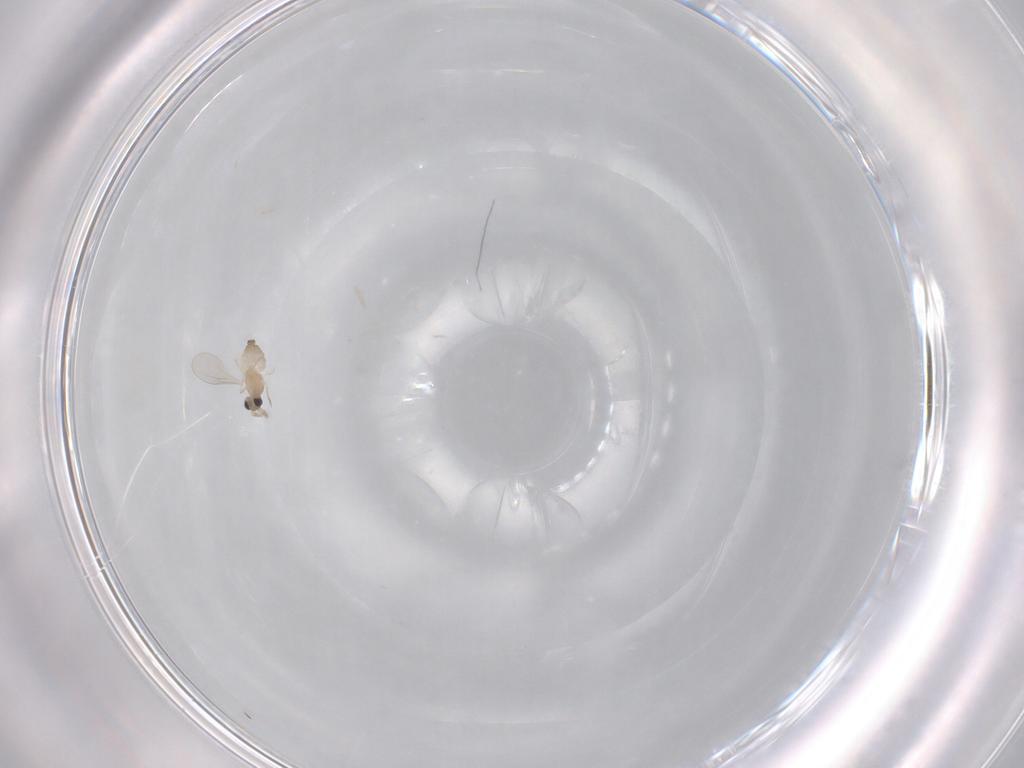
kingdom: Animalia
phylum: Arthropoda
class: Insecta
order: Diptera
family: Cecidomyiidae
